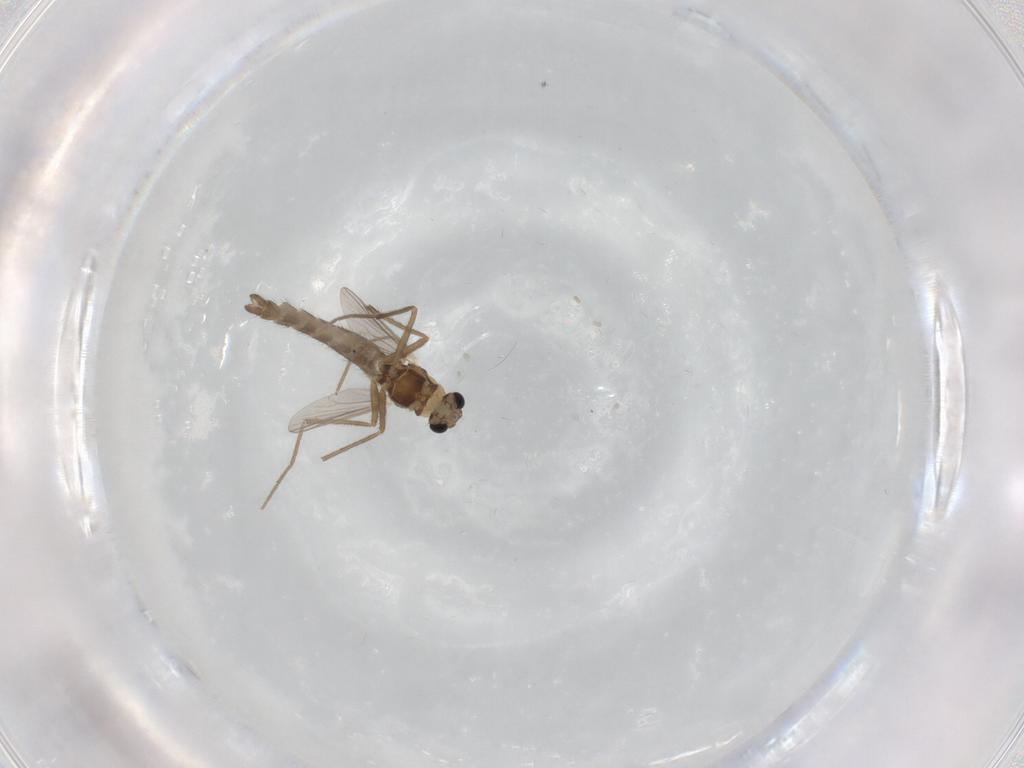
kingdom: Animalia
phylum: Arthropoda
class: Insecta
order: Diptera
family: Chironomidae
